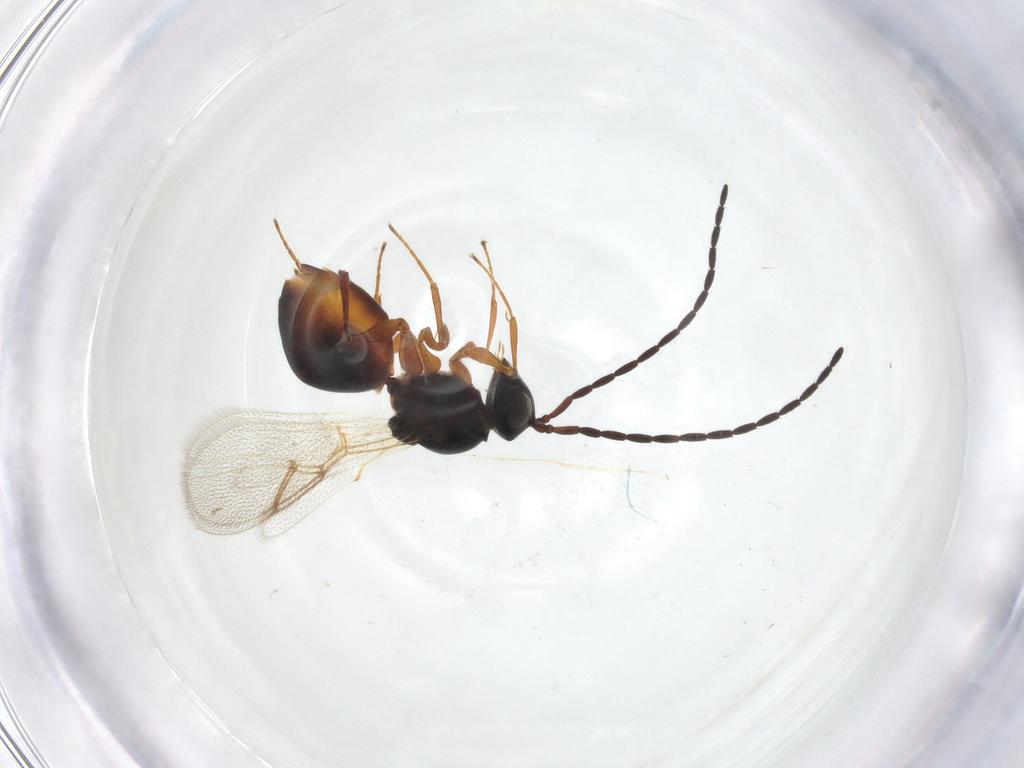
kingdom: Animalia
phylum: Arthropoda
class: Insecta
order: Hymenoptera
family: Figitidae
